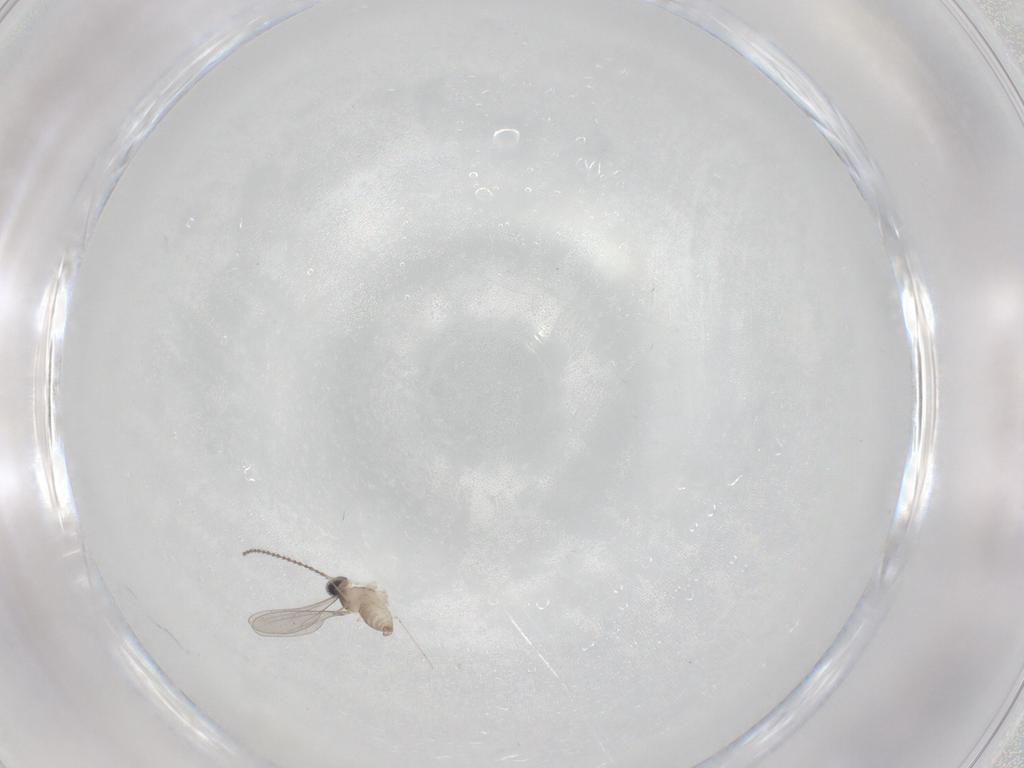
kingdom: Animalia
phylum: Arthropoda
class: Insecta
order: Diptera
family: Cecidomyiidae
